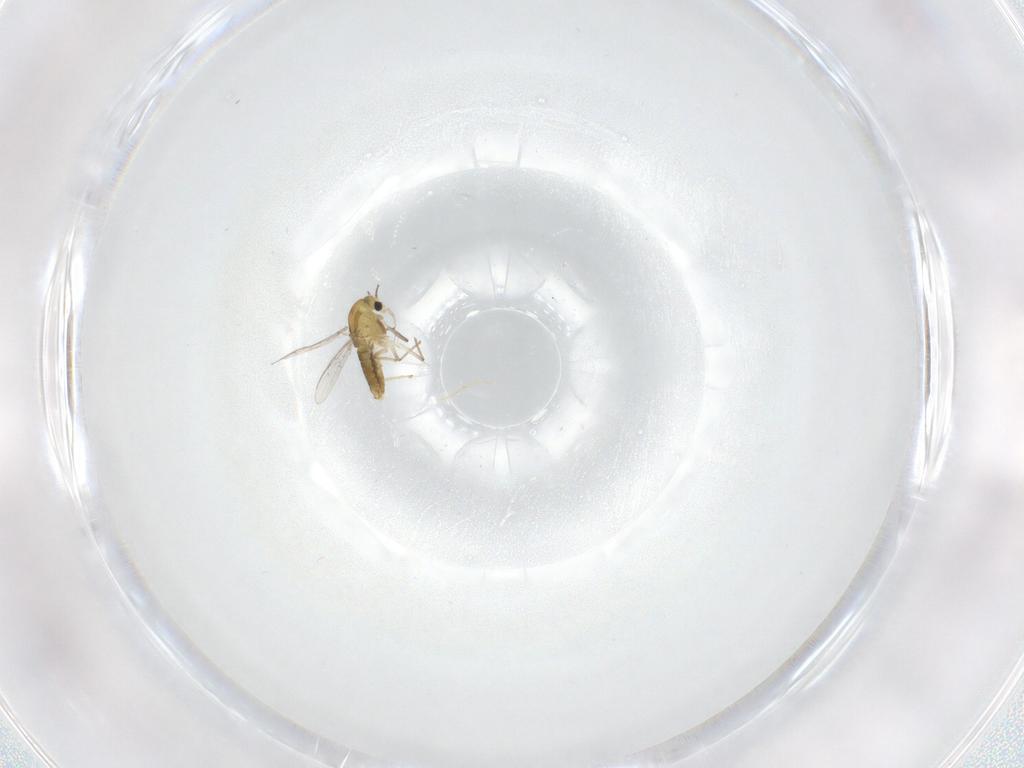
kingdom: Animalia
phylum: Arthropoda
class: Insecta
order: Diptera
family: Chironomidae
